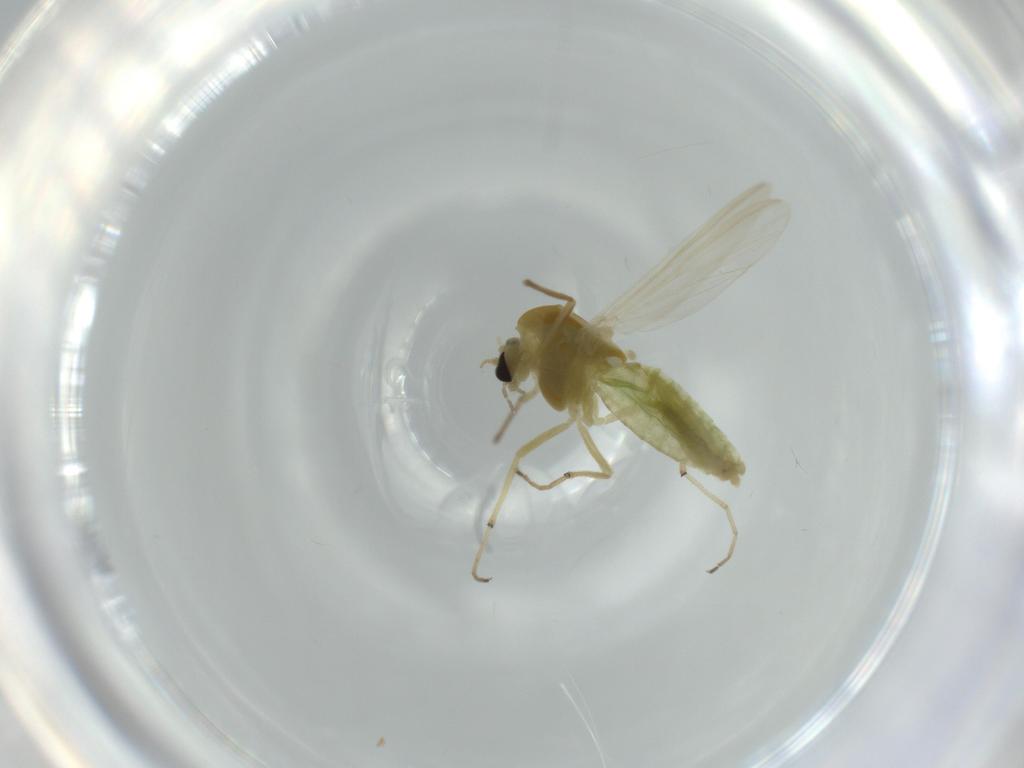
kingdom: Animalia
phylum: Arthropoda
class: Insecta
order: Diptera
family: Chironomidae
